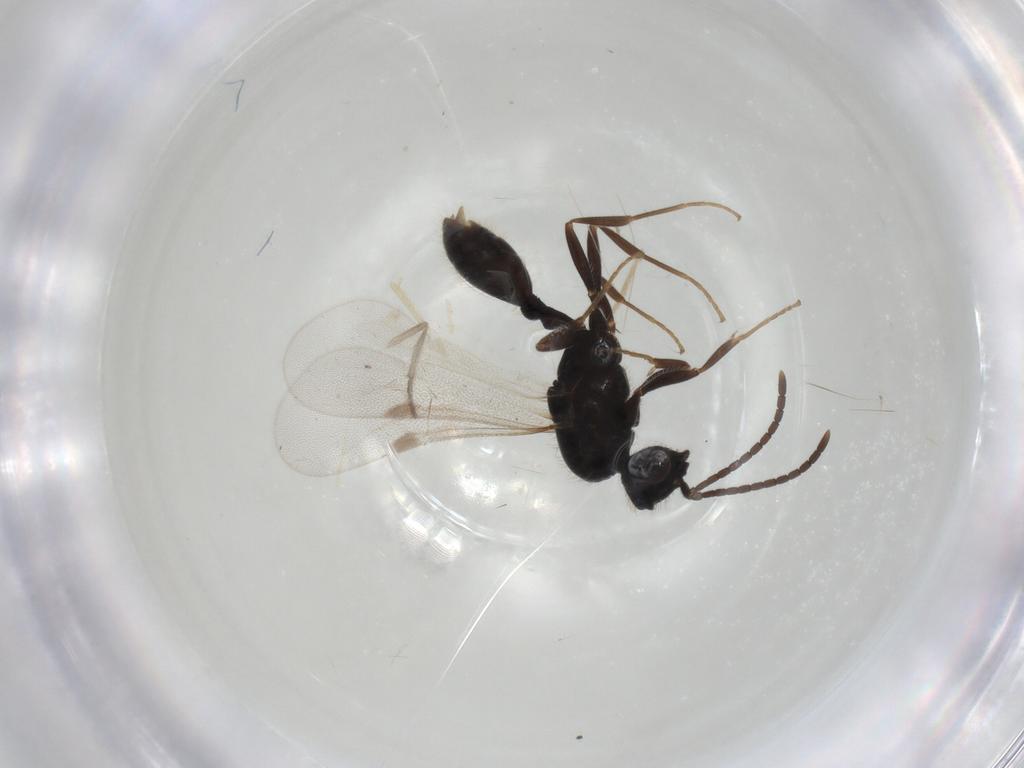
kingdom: Animalia
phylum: Arthropoda
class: Insecta
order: Hymenoptera
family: Formicidae
